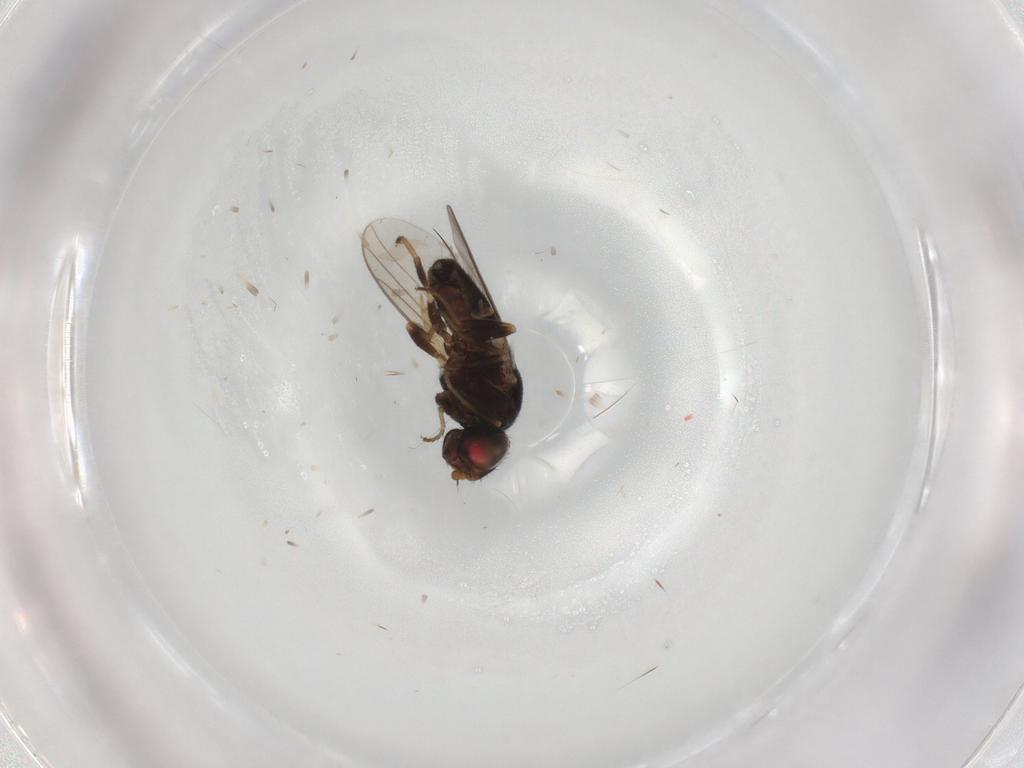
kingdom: Animalia
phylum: Arthropoda
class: Insecta
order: Diptera
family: Chloropidae
